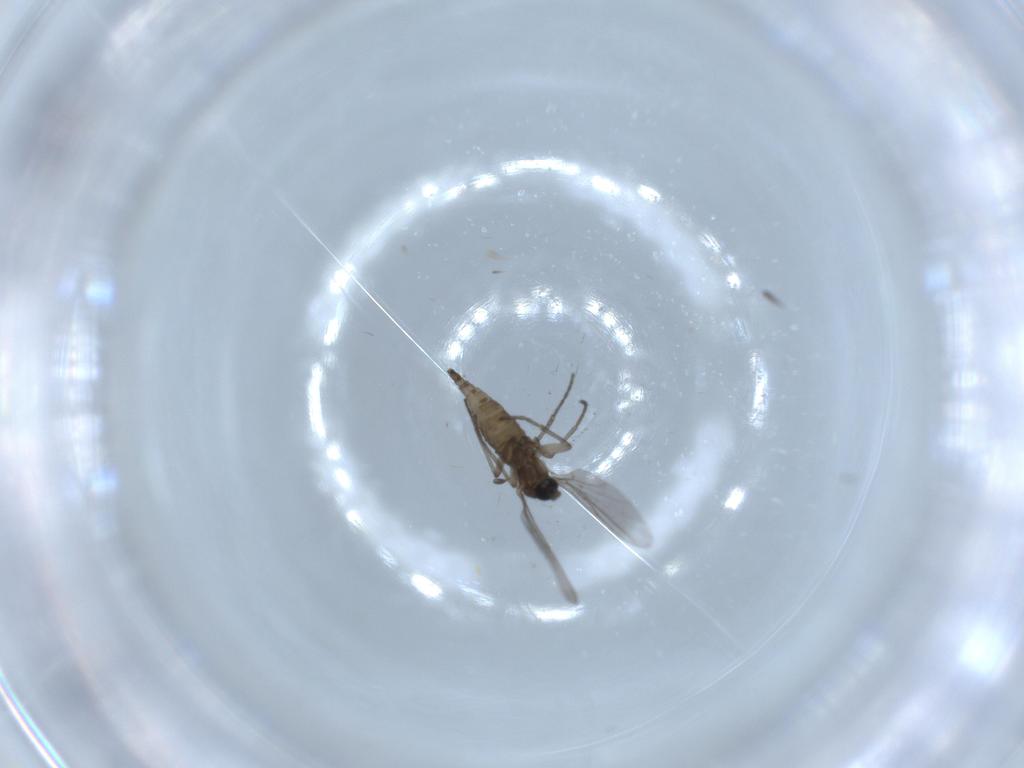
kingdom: Animalia
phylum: Arthropoda
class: Insecta
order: Diptera
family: Sciaridae
